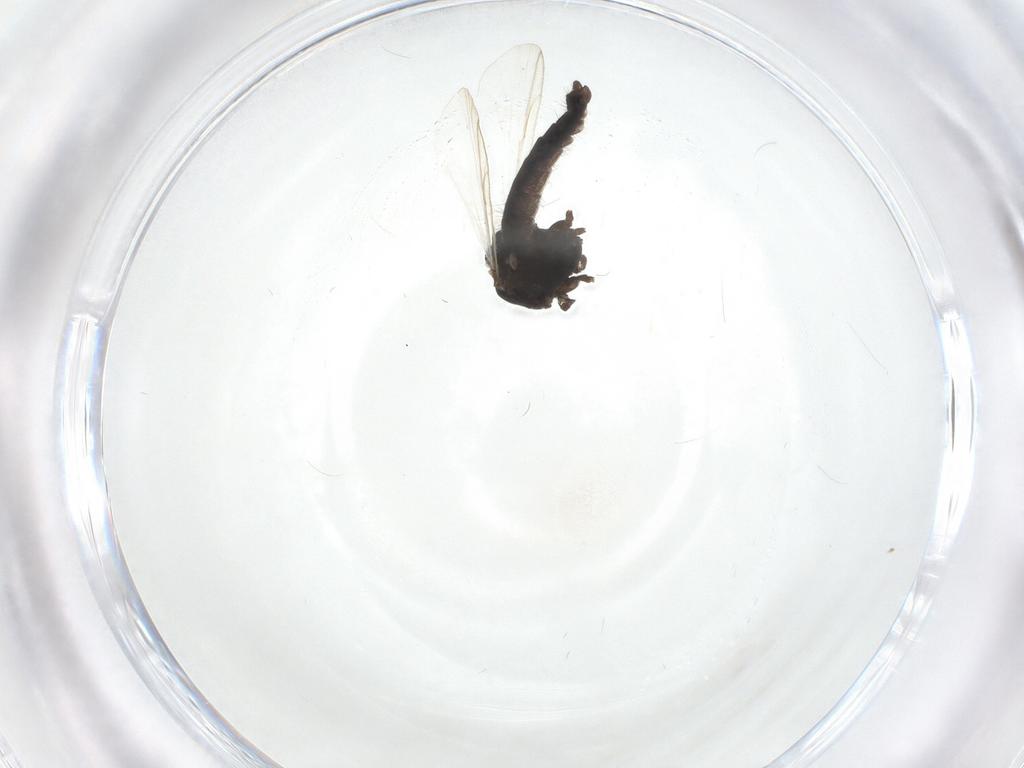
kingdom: Animalia
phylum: Arthropoda
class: Insecta
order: Diptera
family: Chironomidae
